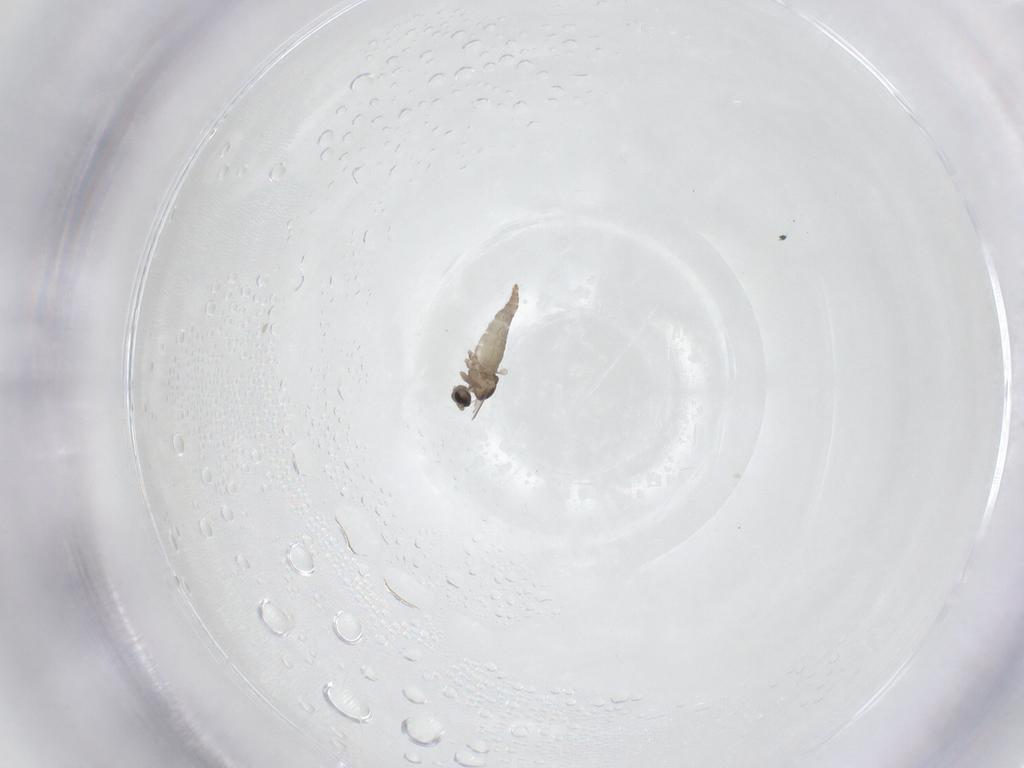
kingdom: Animalia
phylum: Arthropoda
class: Insecta
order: Diptera
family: Cecidomyiidae
